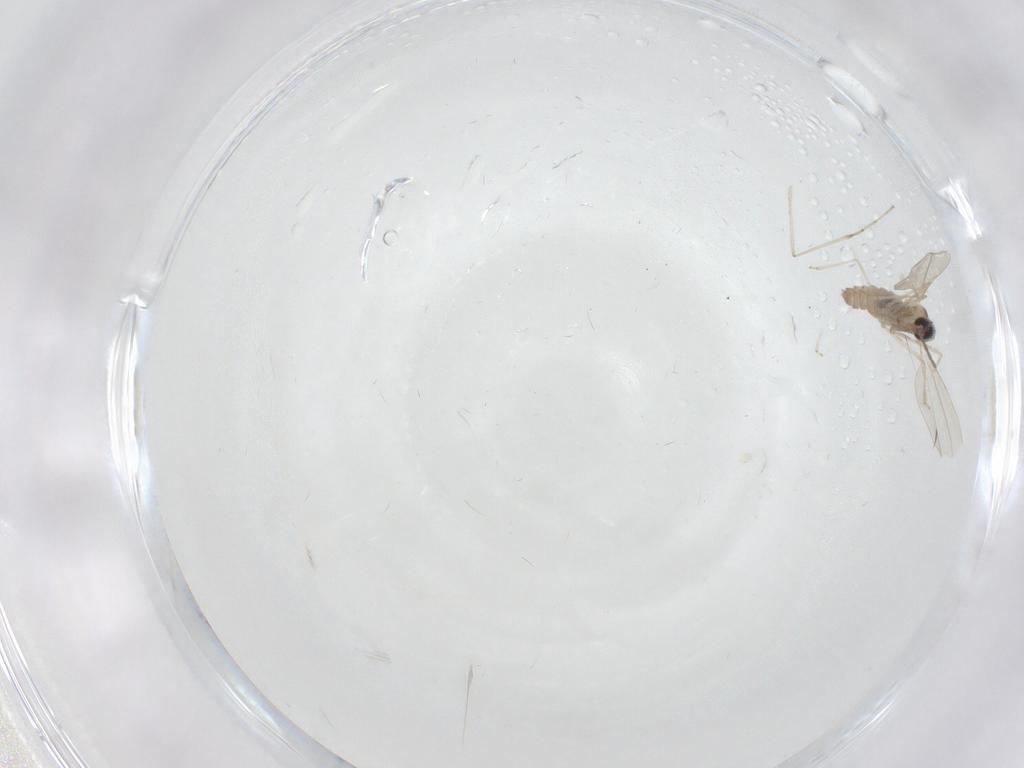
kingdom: Animalia
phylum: Arthropoda
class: Insecta
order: Diptera
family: Cecidomyiidae
